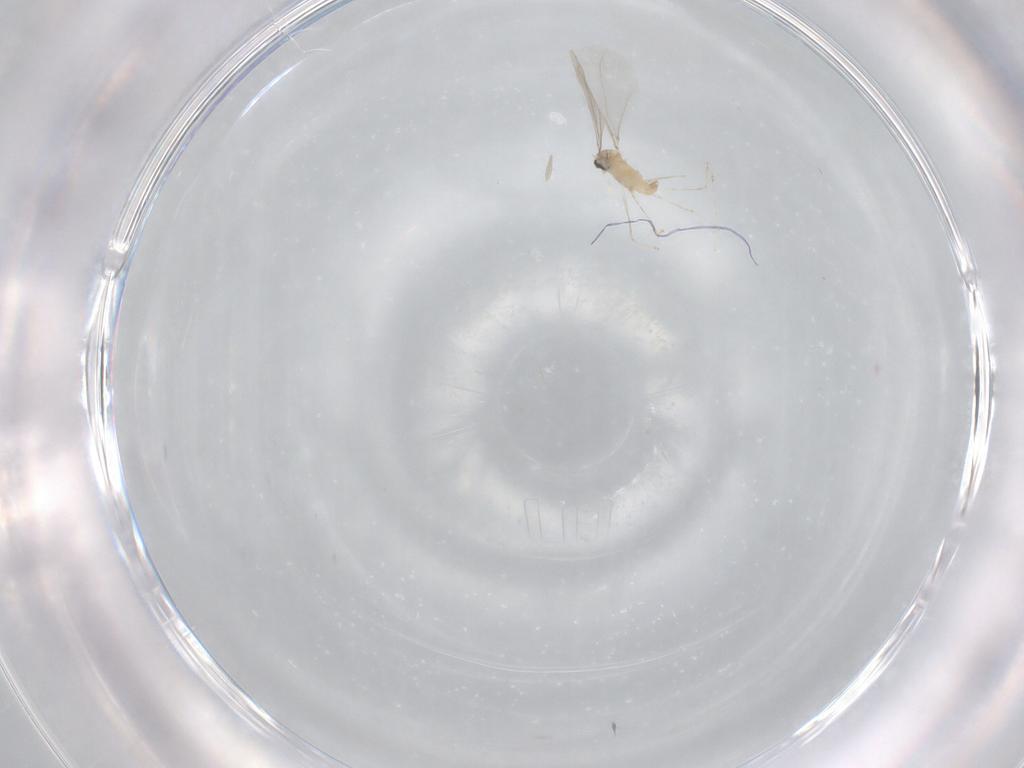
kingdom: Animalia
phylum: Arthropoda
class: Insecta
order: Diptera
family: Cecidomyiidae
